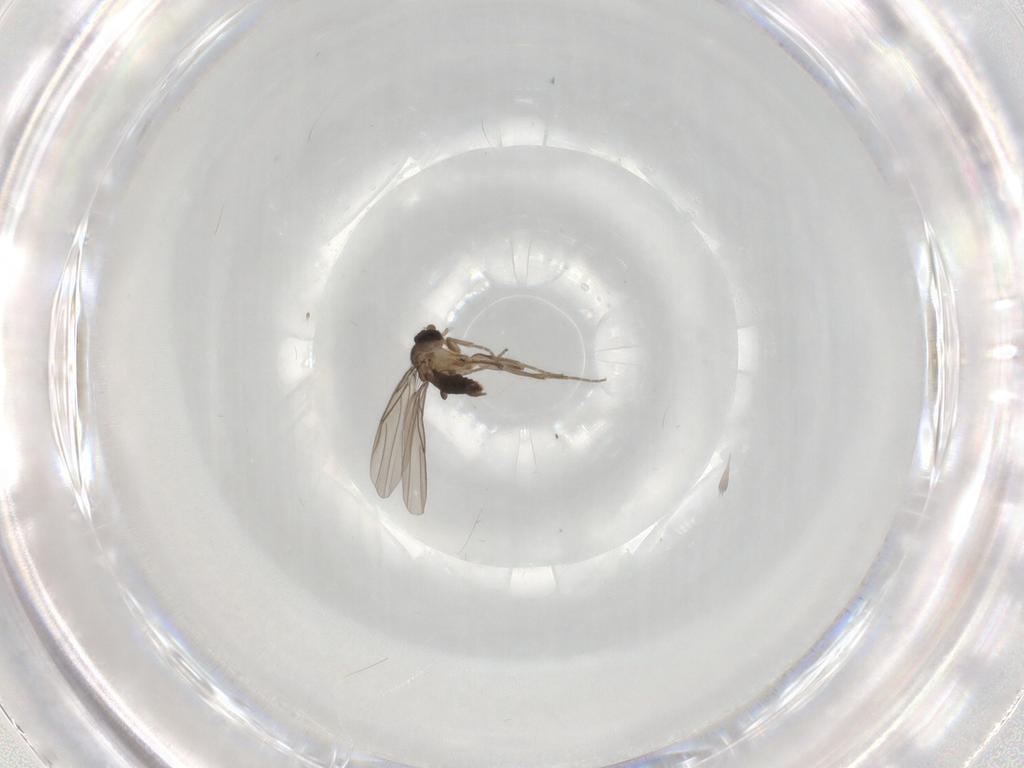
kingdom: Animalia
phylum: Arthropoda
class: Insecta
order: Diptera
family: Phoridae
